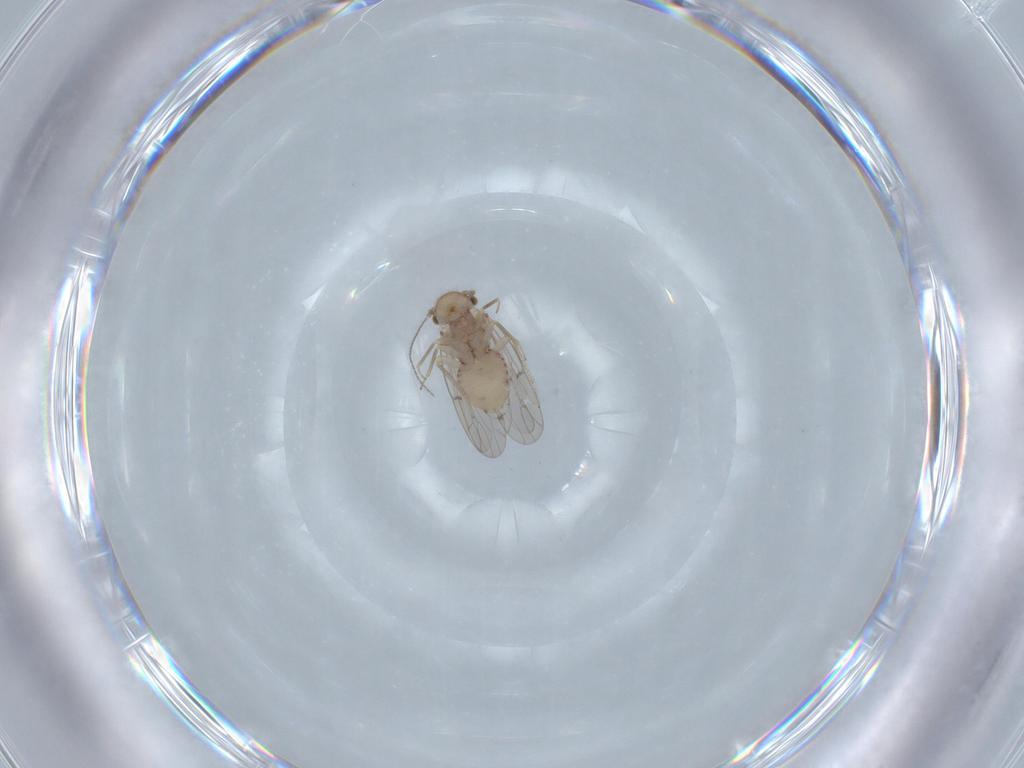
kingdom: Animalia
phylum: Arthropoda
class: Insecta
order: Psocodea
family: Ectopsocidae
